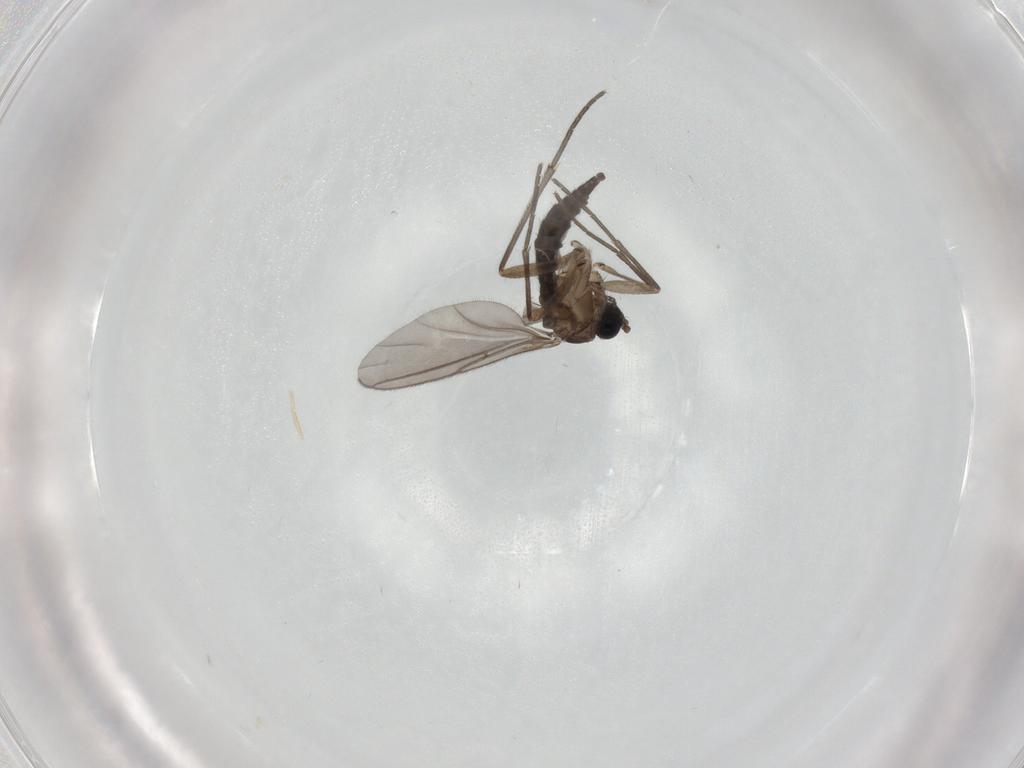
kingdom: Animalia
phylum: Arthropoda
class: Insecta
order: Diptera
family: Sciaridae
